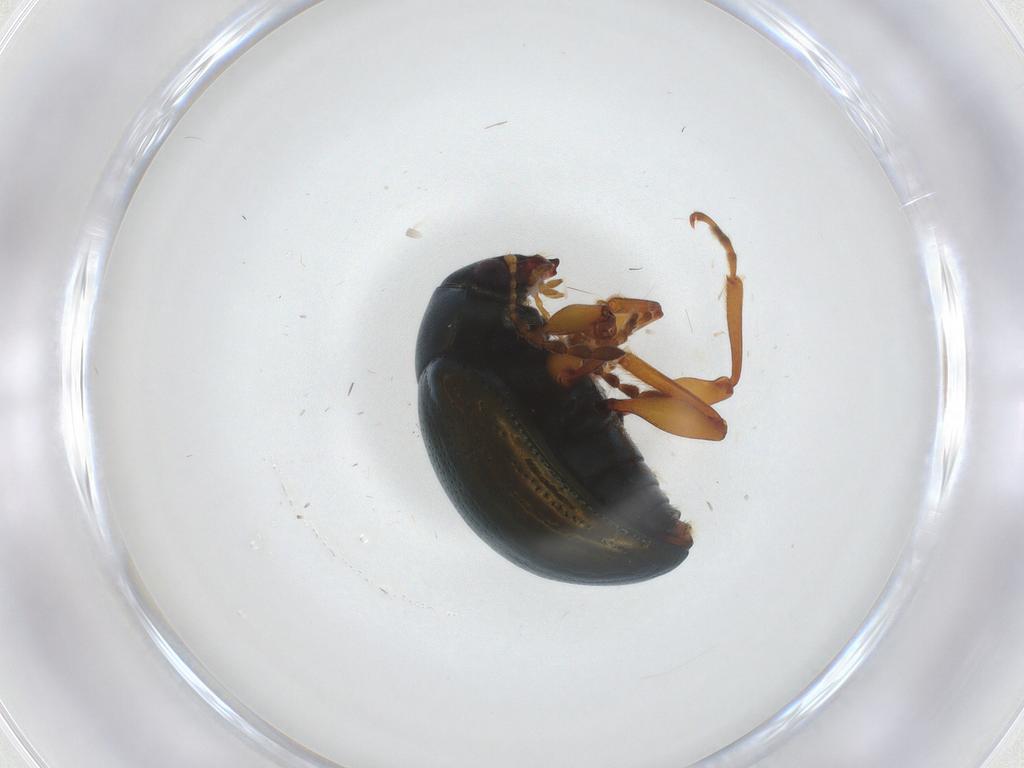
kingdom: Animalia
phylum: Arthropoda
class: Insecta
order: Coleoptera
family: Chrysomelidae
